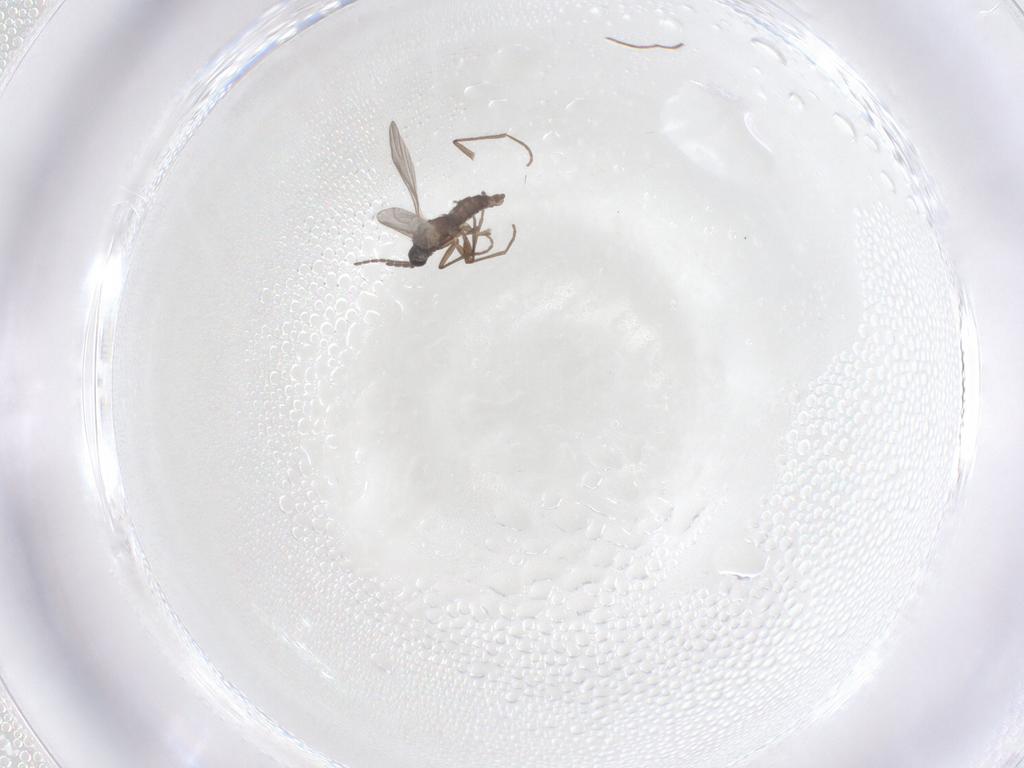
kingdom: Animalia
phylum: Arthropoda
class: Insecta
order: Diptera
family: Sciaridae
